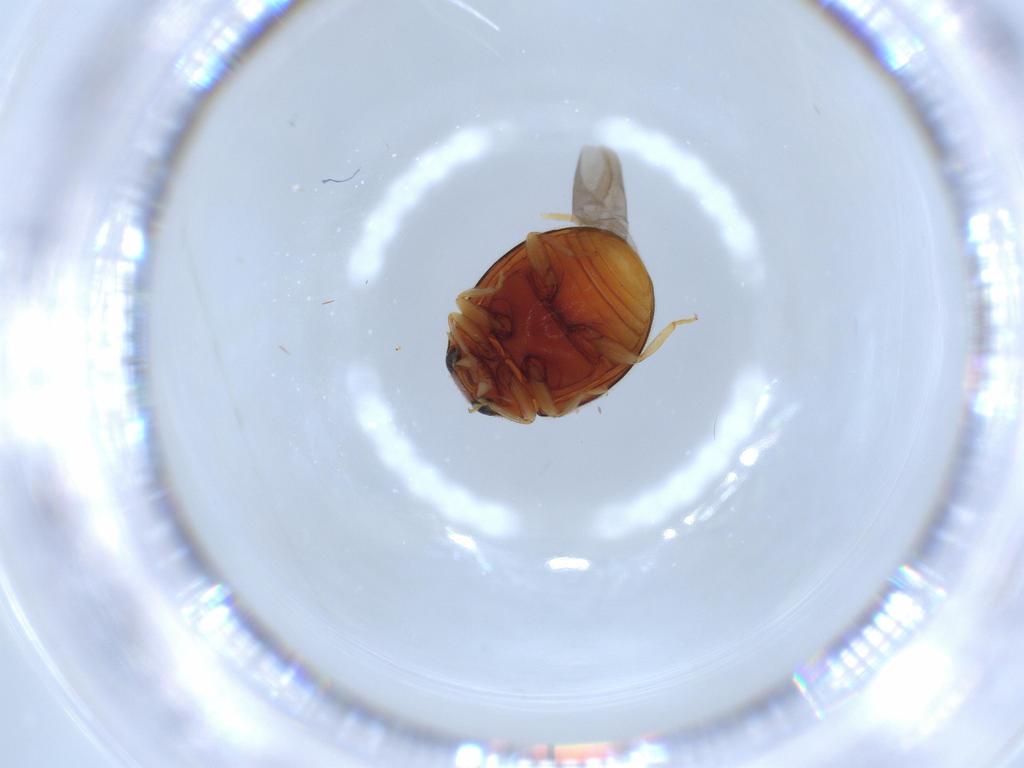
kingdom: Animalia
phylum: Arthropoda
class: Insecta
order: Coleoptera
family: Coccinellidae
